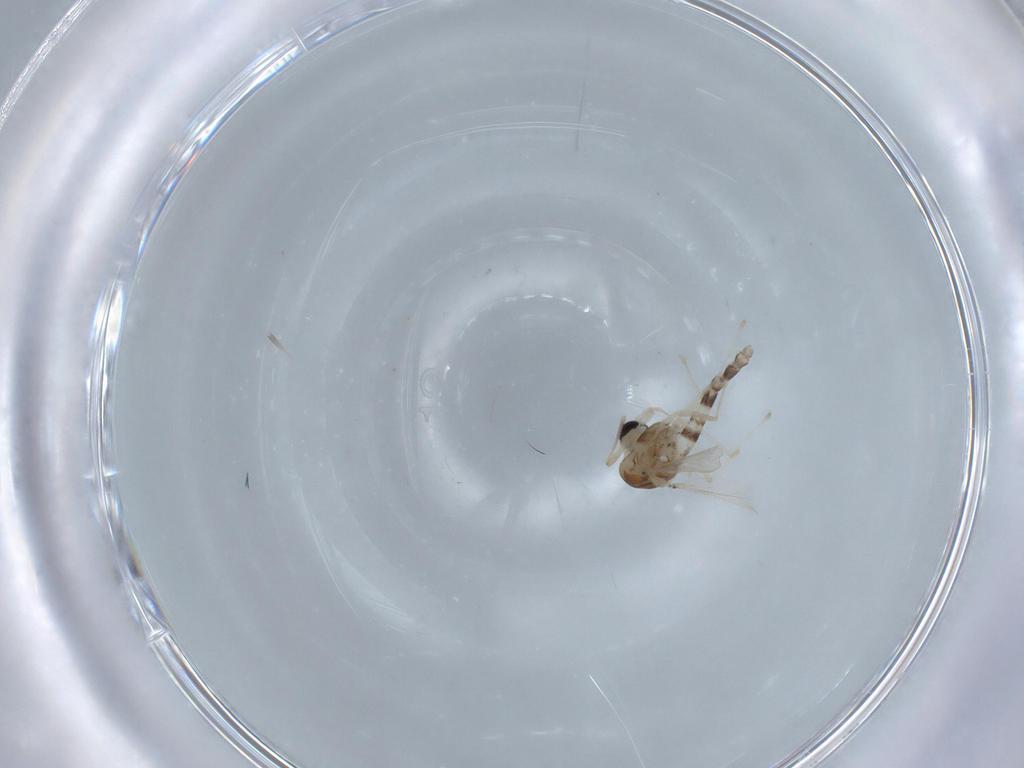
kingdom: Animalia
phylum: Arthropoda
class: Insecta
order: Diptera
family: Chironomidae
